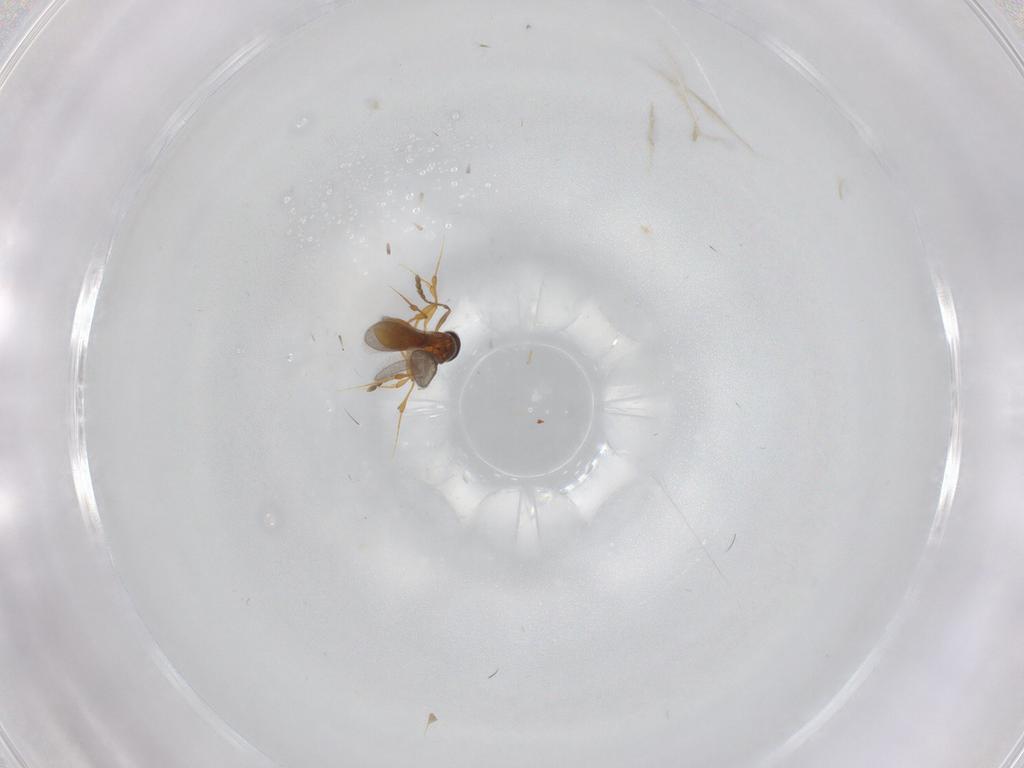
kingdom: Animalia
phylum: Arthropoda
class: Insecta
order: Hymenoptera
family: Platygastridae
